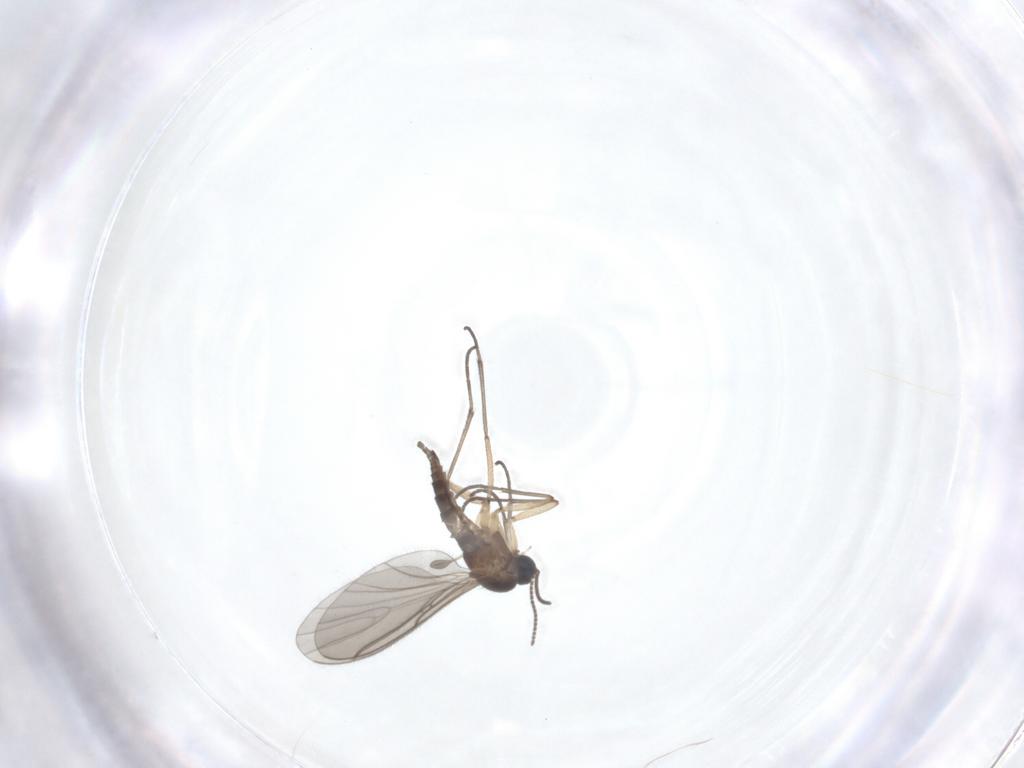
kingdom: Animalia
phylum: Arthropoda
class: Insecta
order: Diptera
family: Sciaridae
